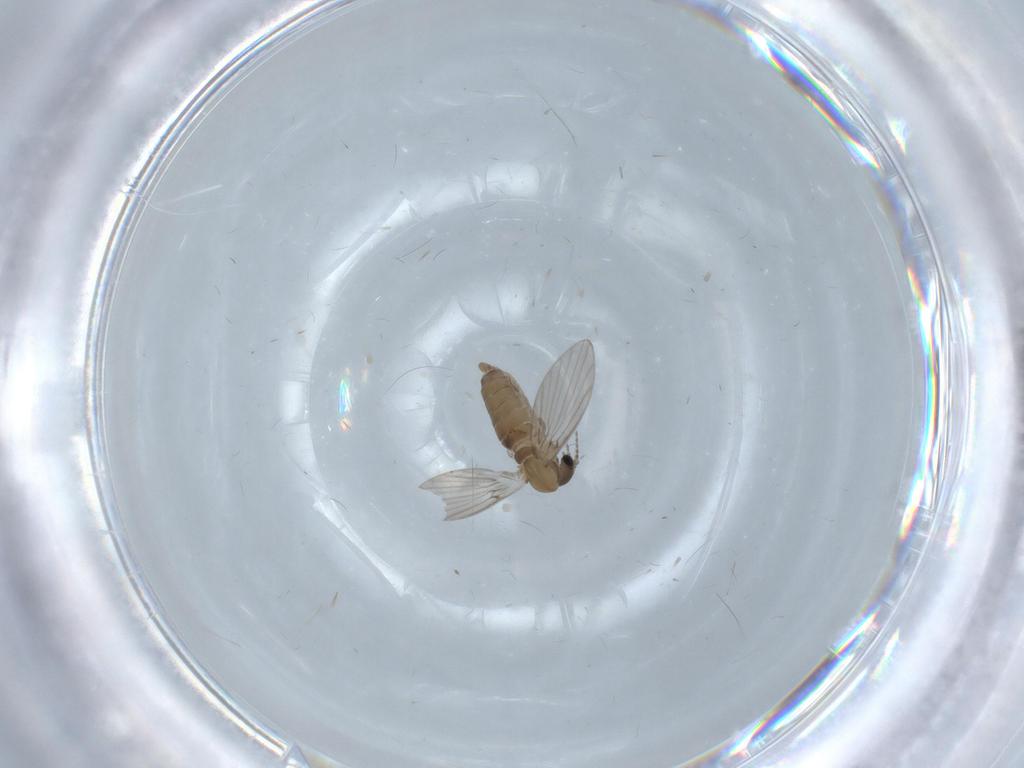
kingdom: Animalia
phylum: Arthropoda
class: Insecta
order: Diptera
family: Psychodidae
